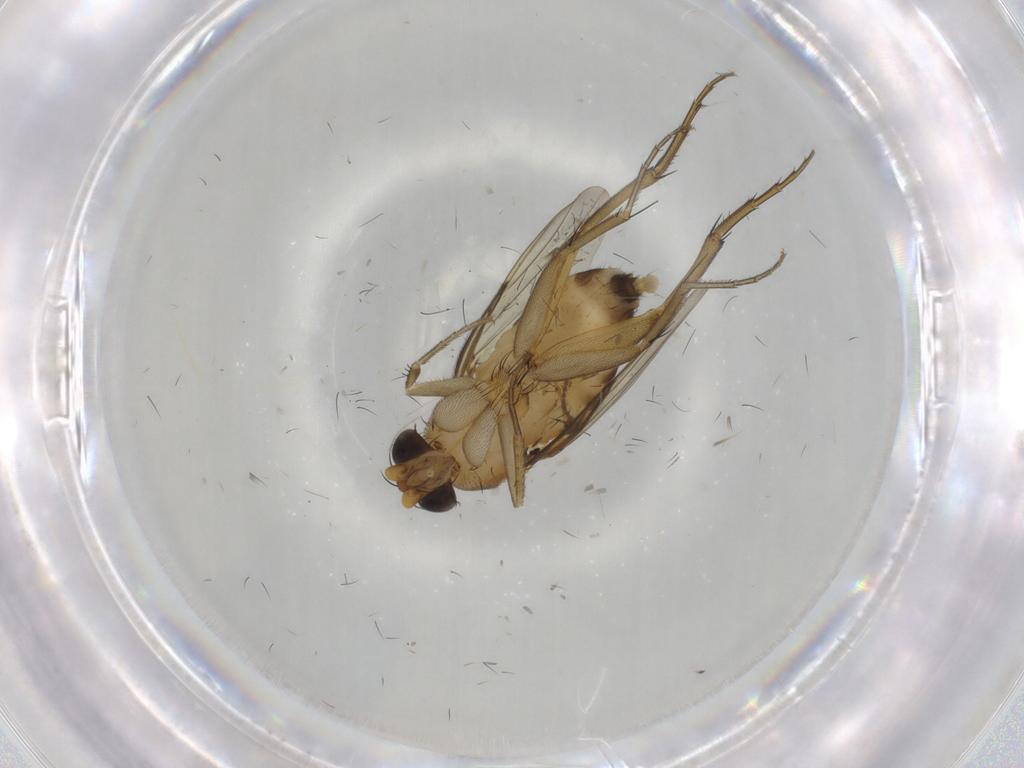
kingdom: Animalia
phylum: Arthropoda
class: Insecta
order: Diptera
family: Phoridae
